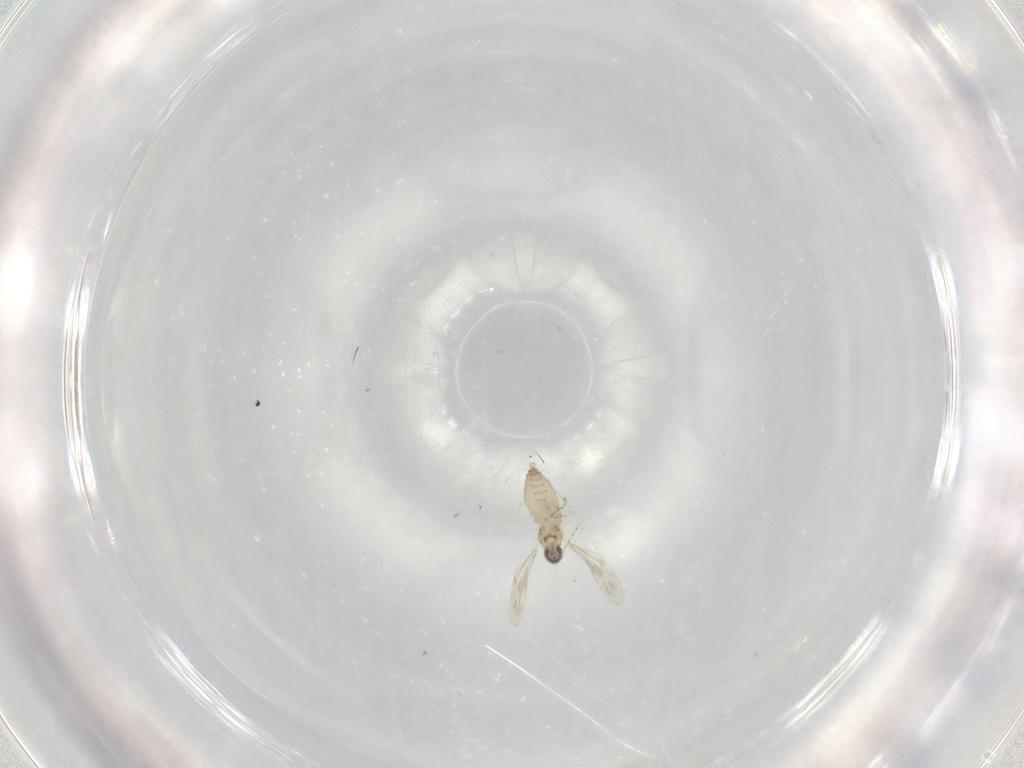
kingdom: Animalia
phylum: Arthropoda
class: Insecta
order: Diptera
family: Cecidomyiidae
